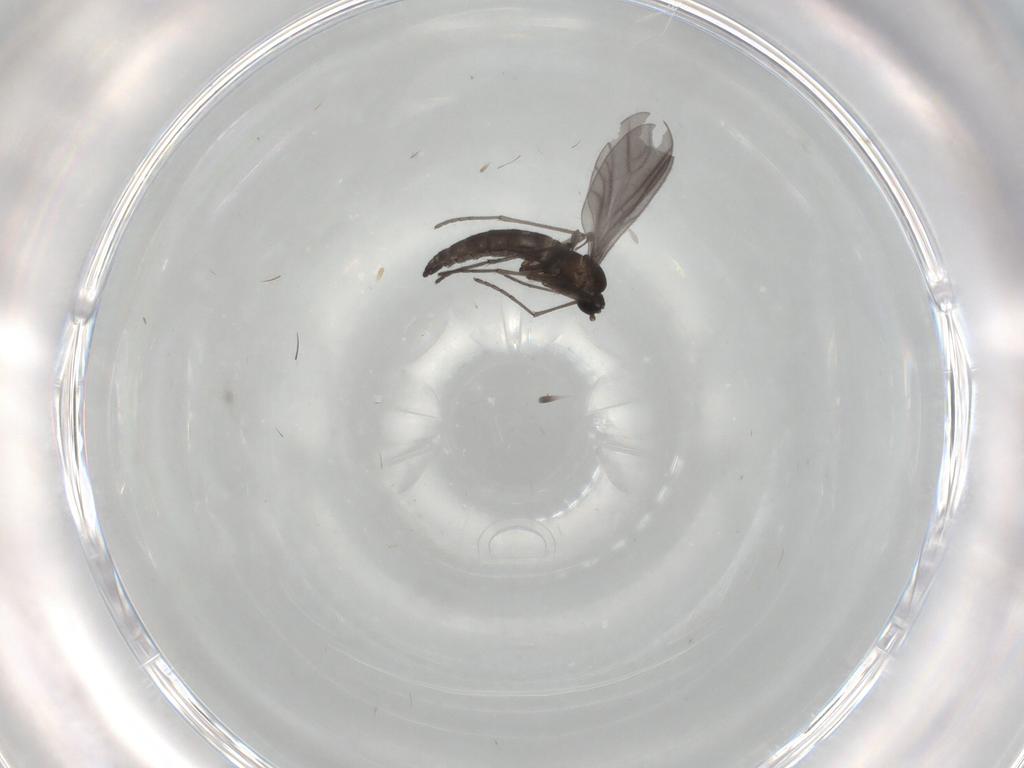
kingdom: Animalia
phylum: Arthropoda
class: Insecta
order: Diptera
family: Sciaridae
